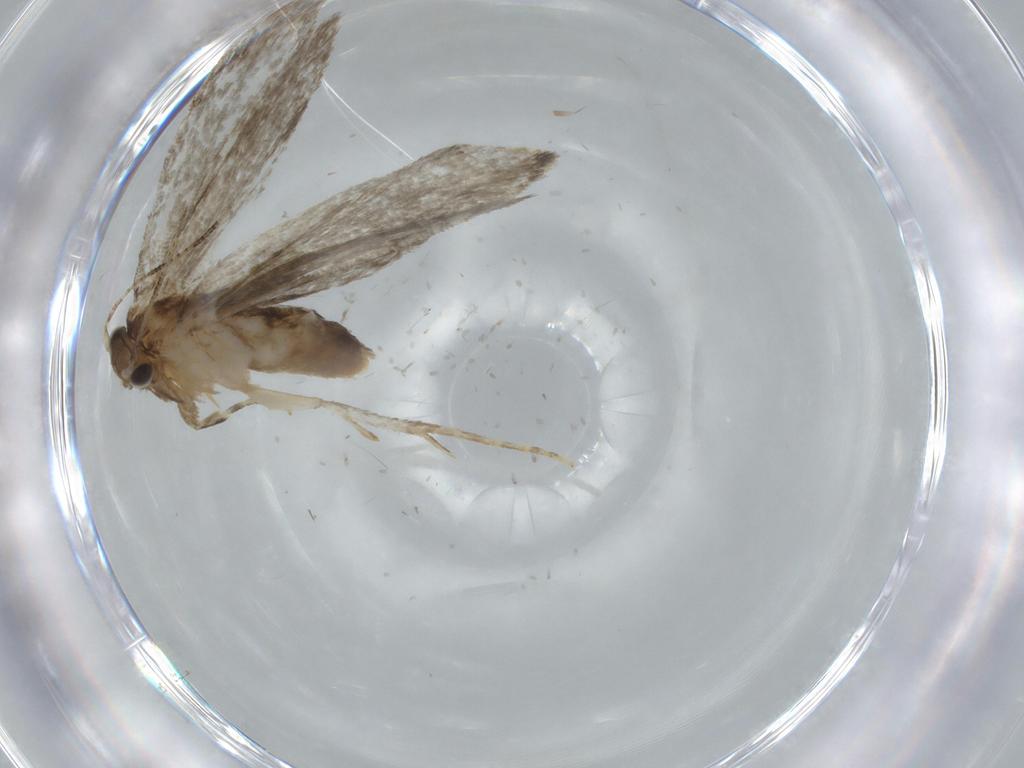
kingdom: Animalia
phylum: Arthropoda
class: Insecta
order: Lepidoptera
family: Tineidae
